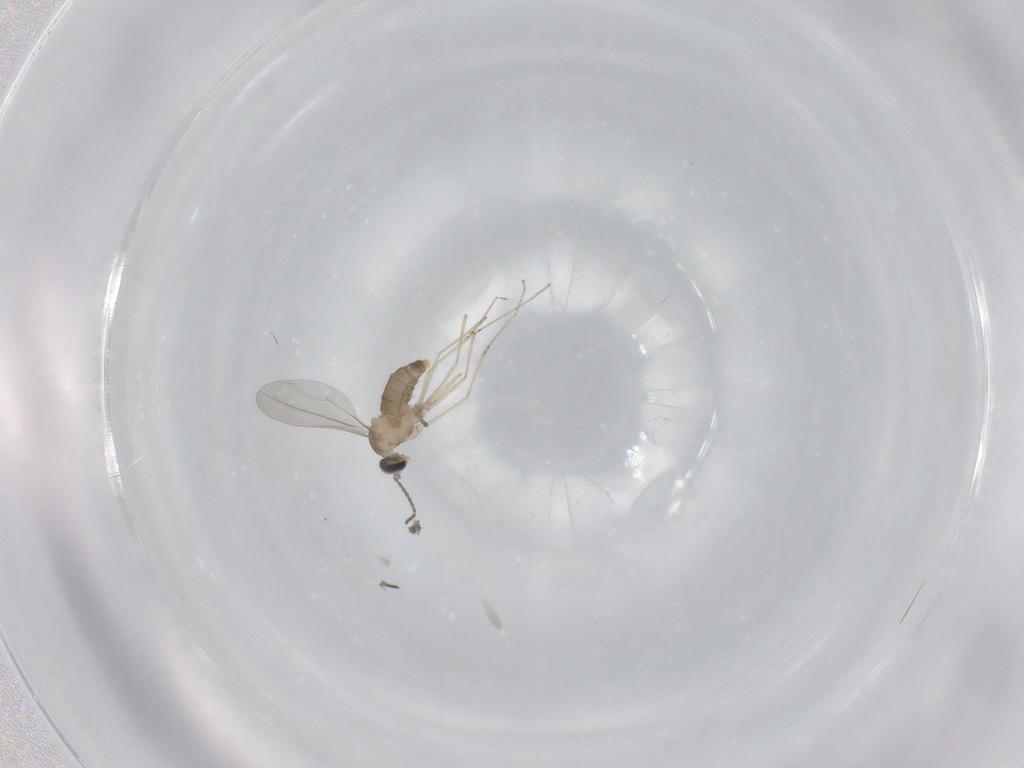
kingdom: Animalia
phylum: Arthropoda
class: Insecta
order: Diptera
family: Cecidomyiidae
